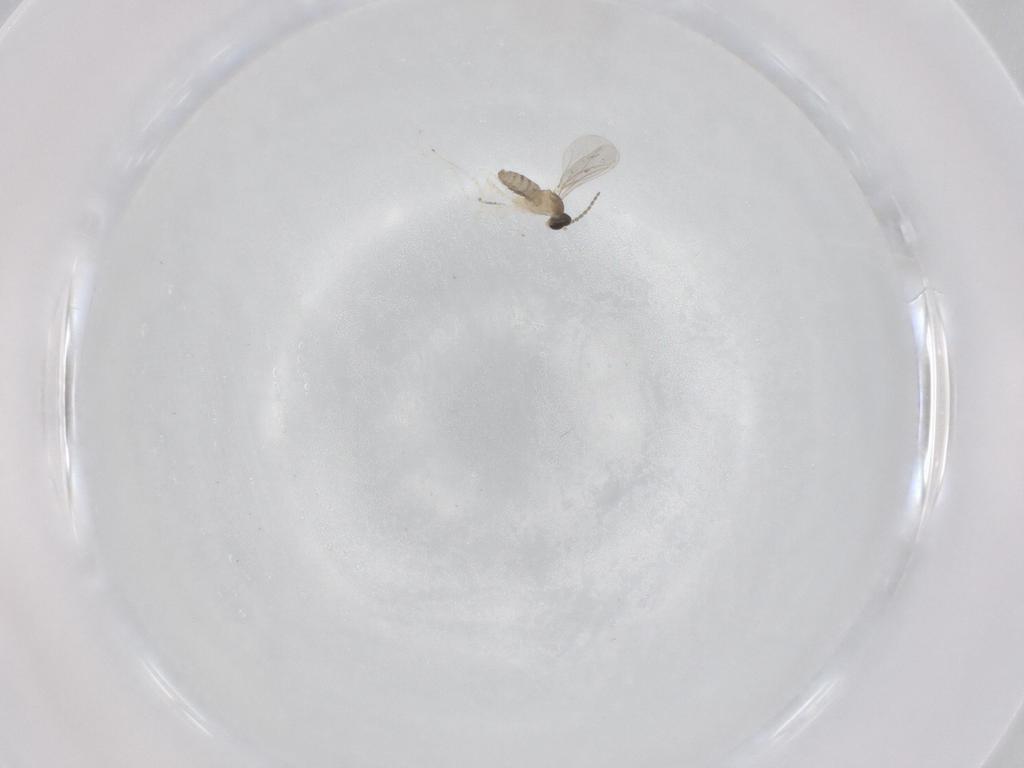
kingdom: Animalia
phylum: Arthropoda
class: Insecta
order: Diptera
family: Cecidomyiidae
